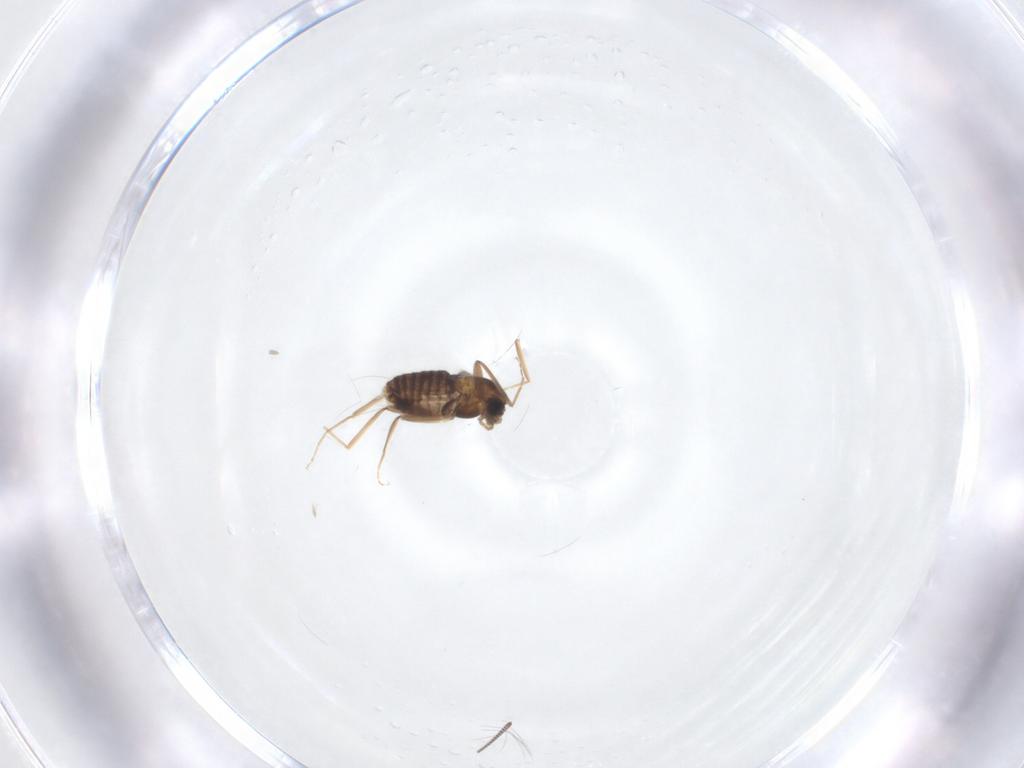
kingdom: Animalia
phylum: Arthropoda
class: Insecta
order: Diptera
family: Limoniidae
